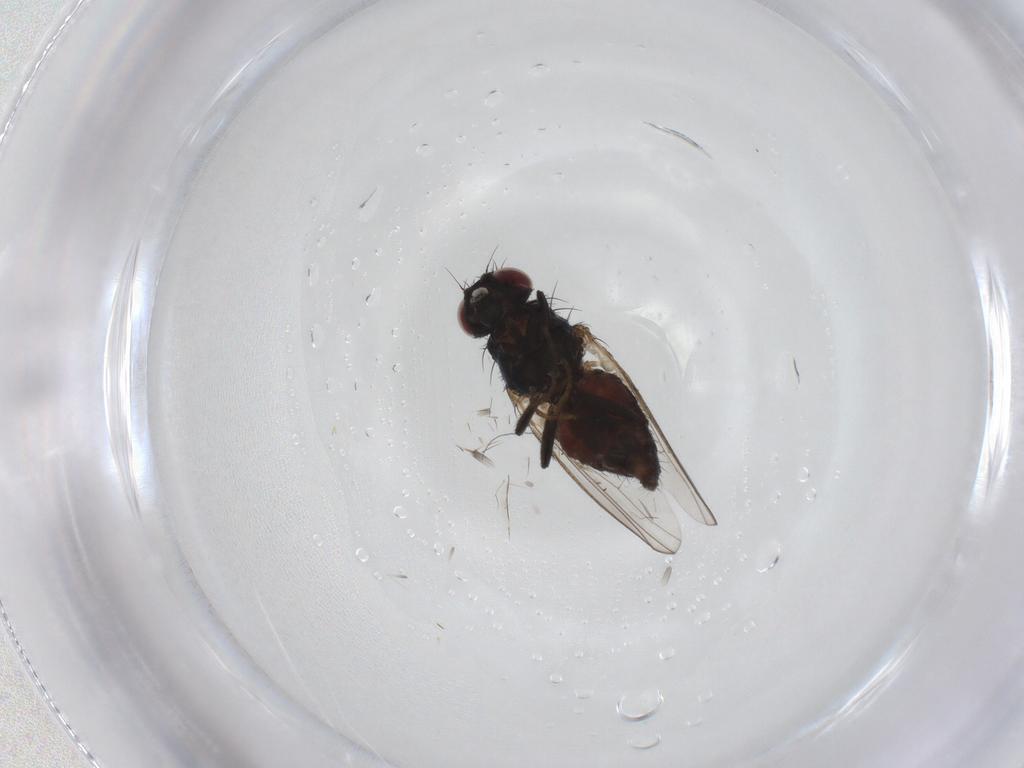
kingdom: Animalia
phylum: Arthropoda
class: Insecta
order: Diptera
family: Carnidae
